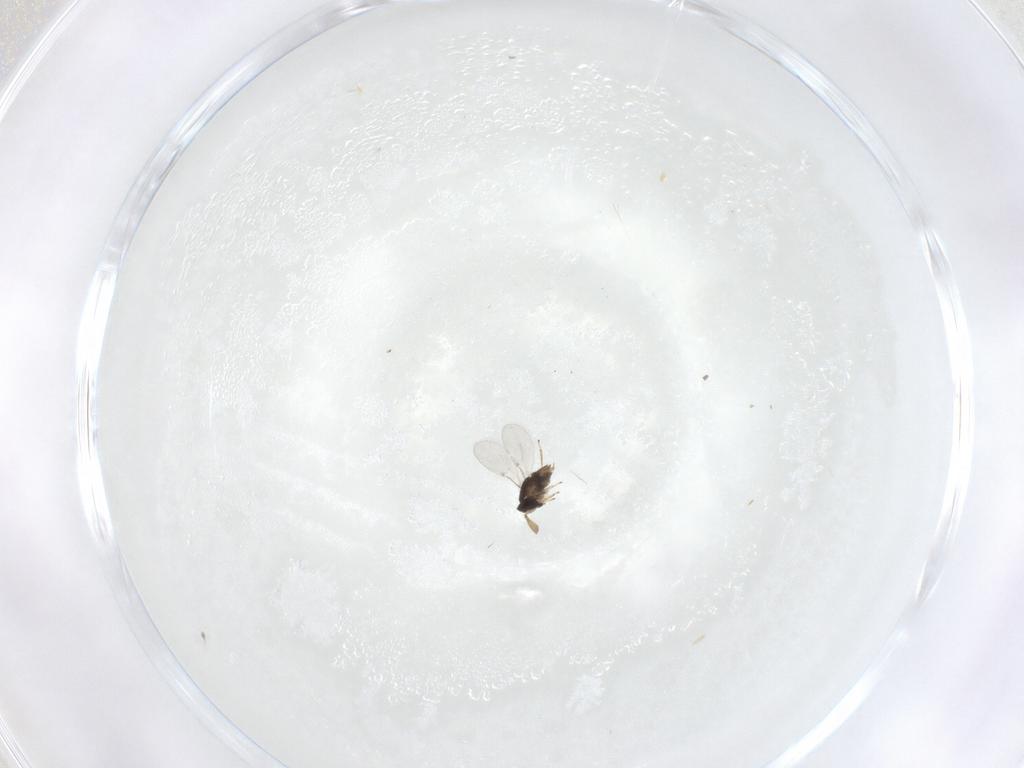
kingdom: Animalia
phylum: Arthropoda
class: Insecta
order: Hymenoptera
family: Encyrtidae
